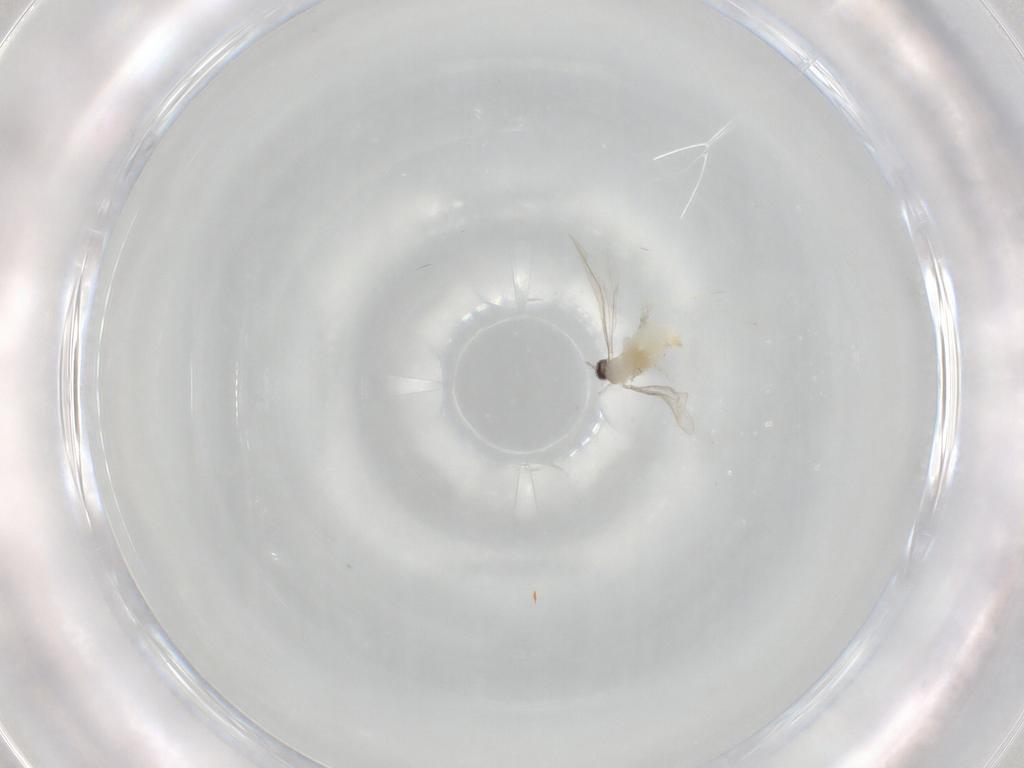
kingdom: Animalia
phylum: Arthropoda
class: Insecta
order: Diptera
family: Cecidomyiidae
